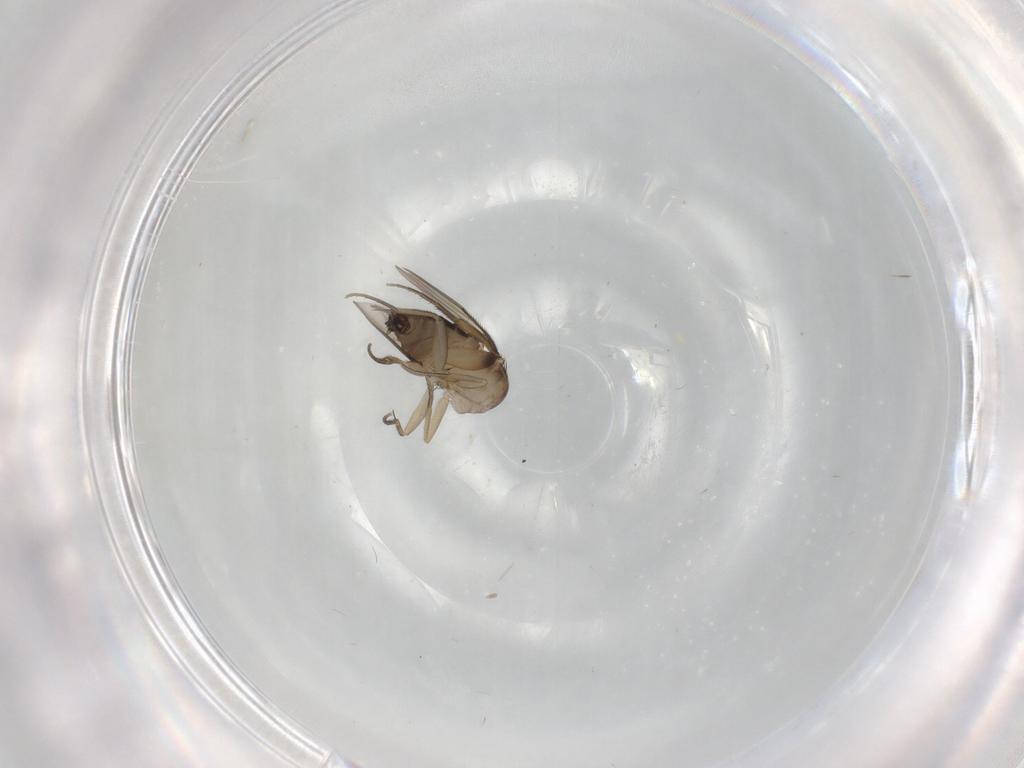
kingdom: Animalia
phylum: Arthropoda
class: Insecta
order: Diptera
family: Phoridae
